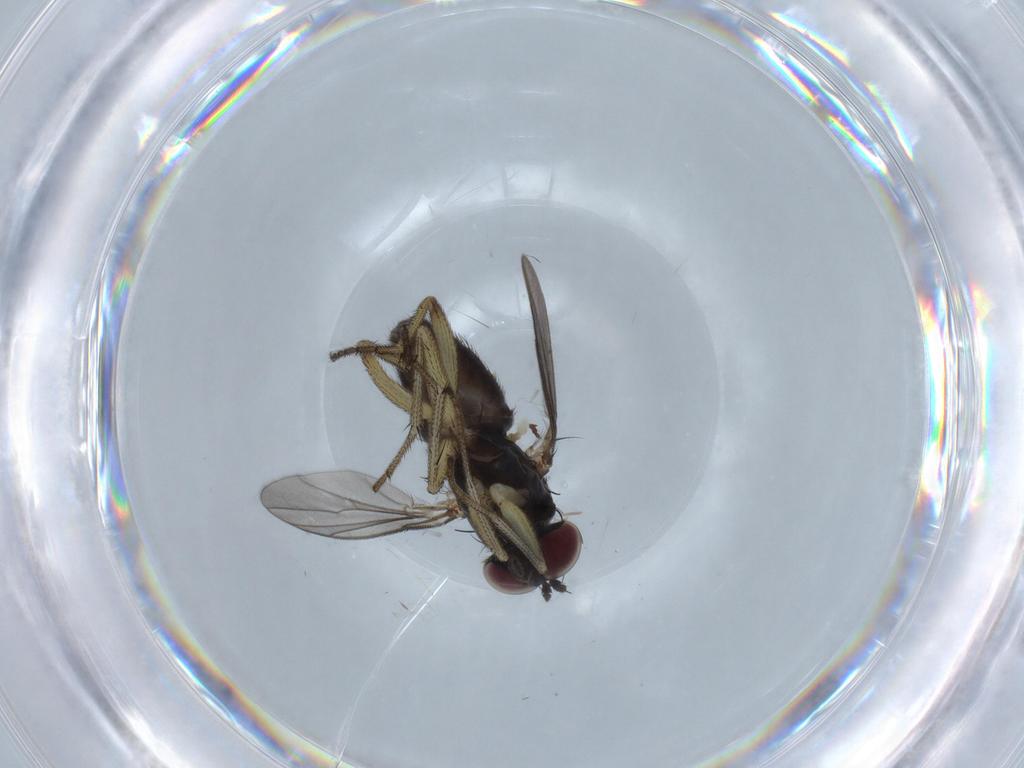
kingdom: Animalia
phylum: Arthropoda
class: Insecta
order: Diptera
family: Dolichopodidae
